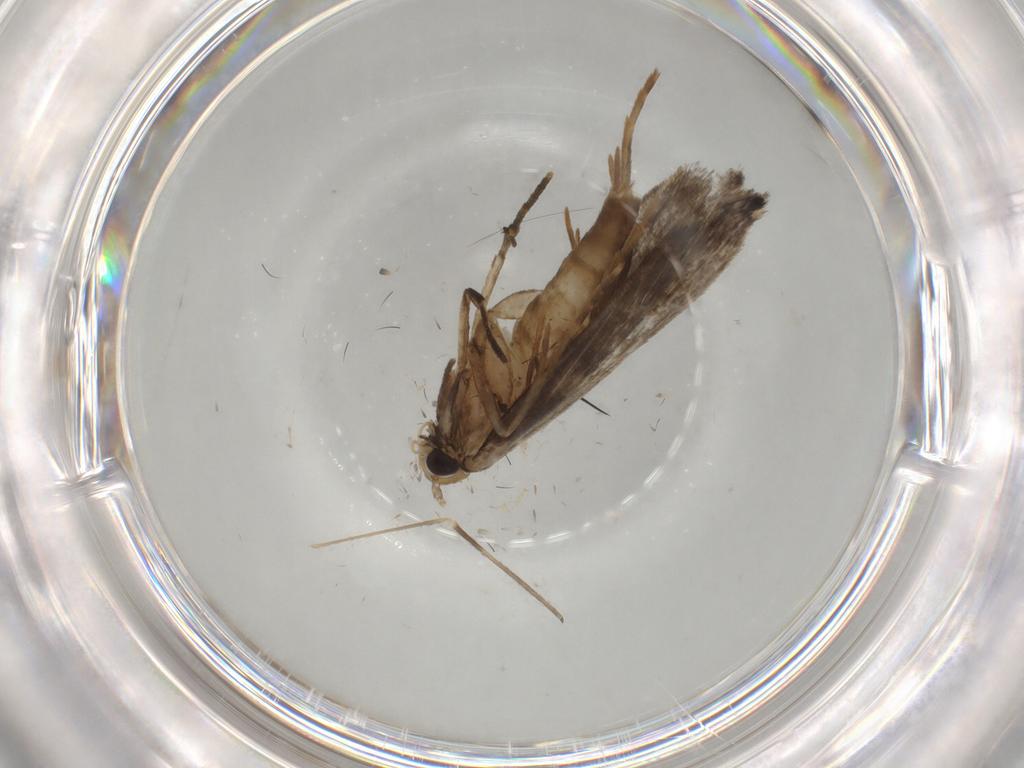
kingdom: Animalia
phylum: Arthropoda
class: Insecta
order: Lepidoptera
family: Tineidae
